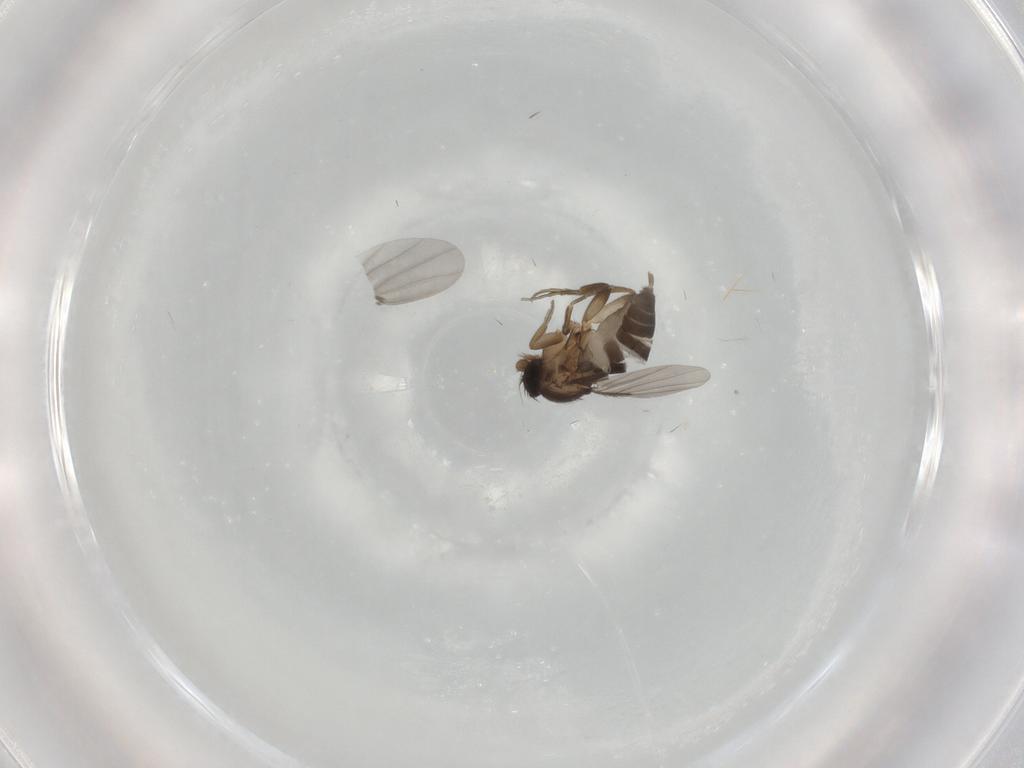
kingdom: Animalia
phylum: Arthropoda
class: Insecta
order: Diptera
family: Phoridae
